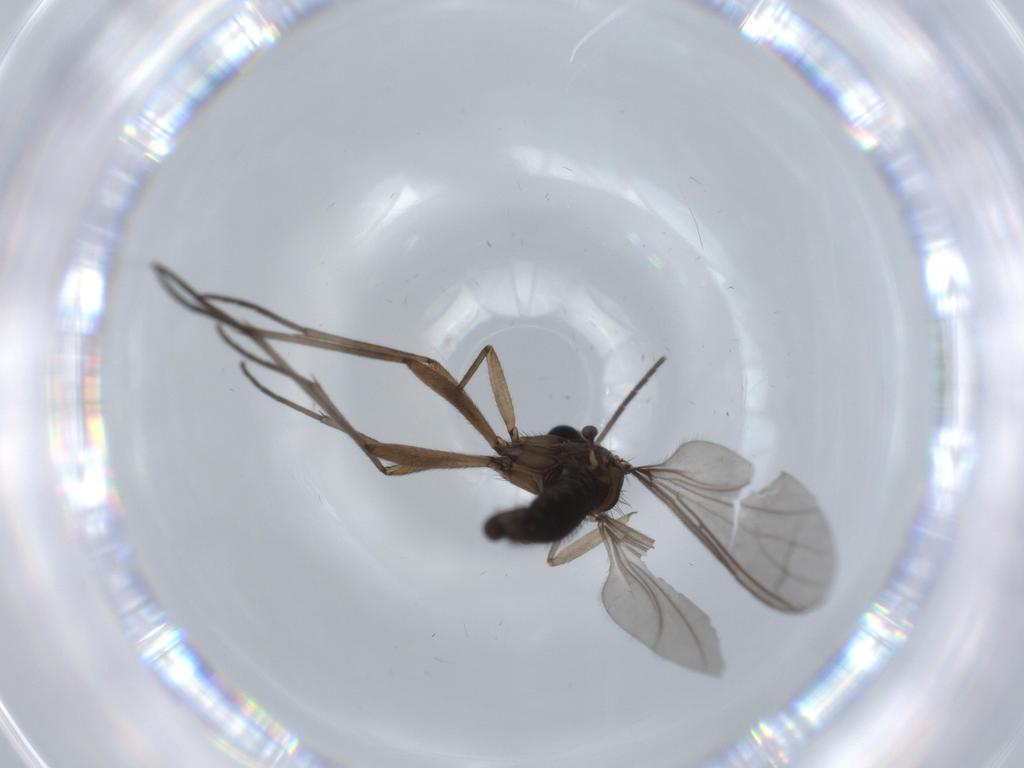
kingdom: Animalia
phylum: Arthropoda
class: Insecta
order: Diptera
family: Sciaridae
